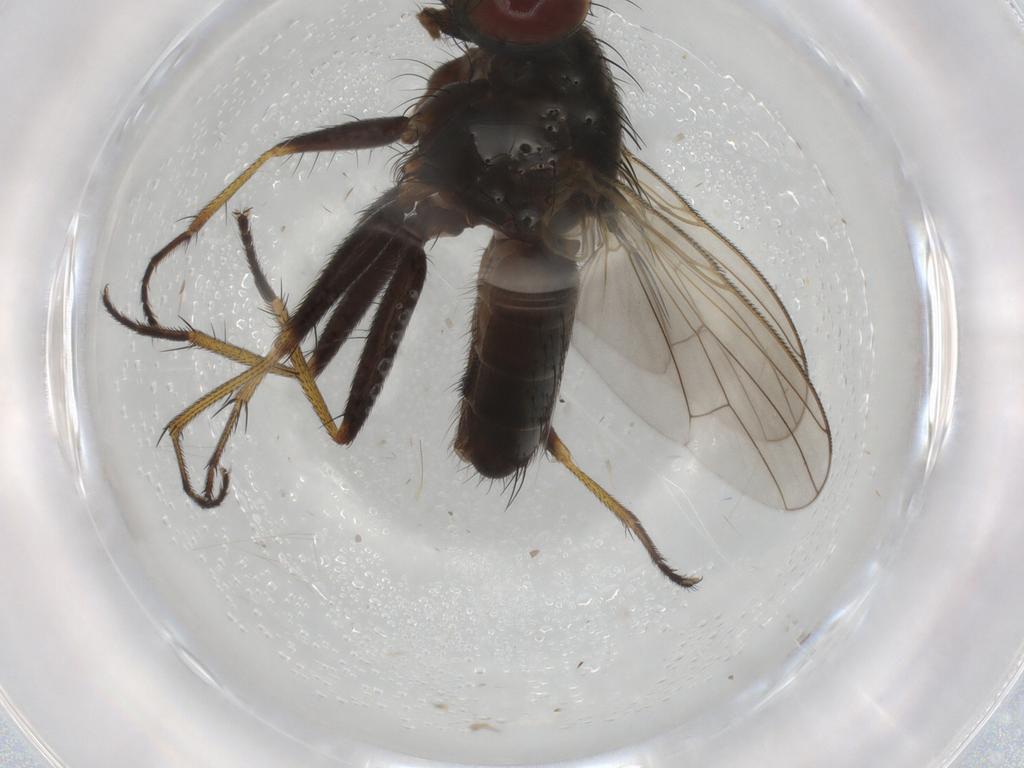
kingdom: Animalia
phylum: Arthropoda
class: Insecta
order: Diptera
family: Muscidae
